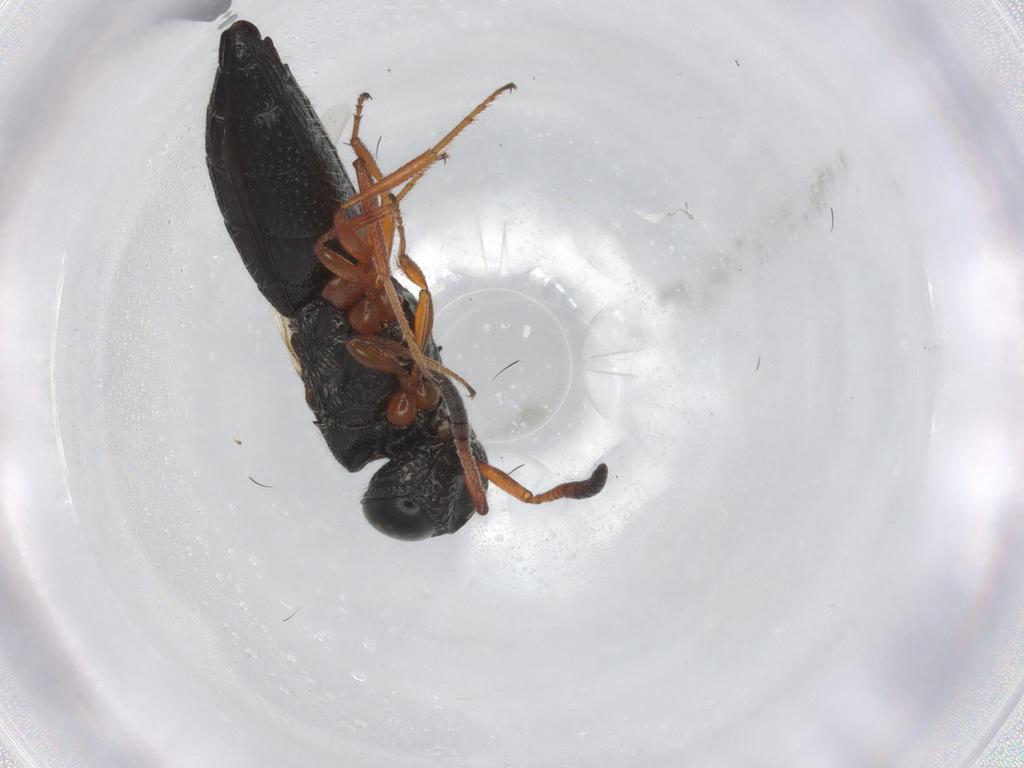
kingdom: Animalia
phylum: Arthropoda
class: Insecta
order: Hymenoptera
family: Scelionidae
